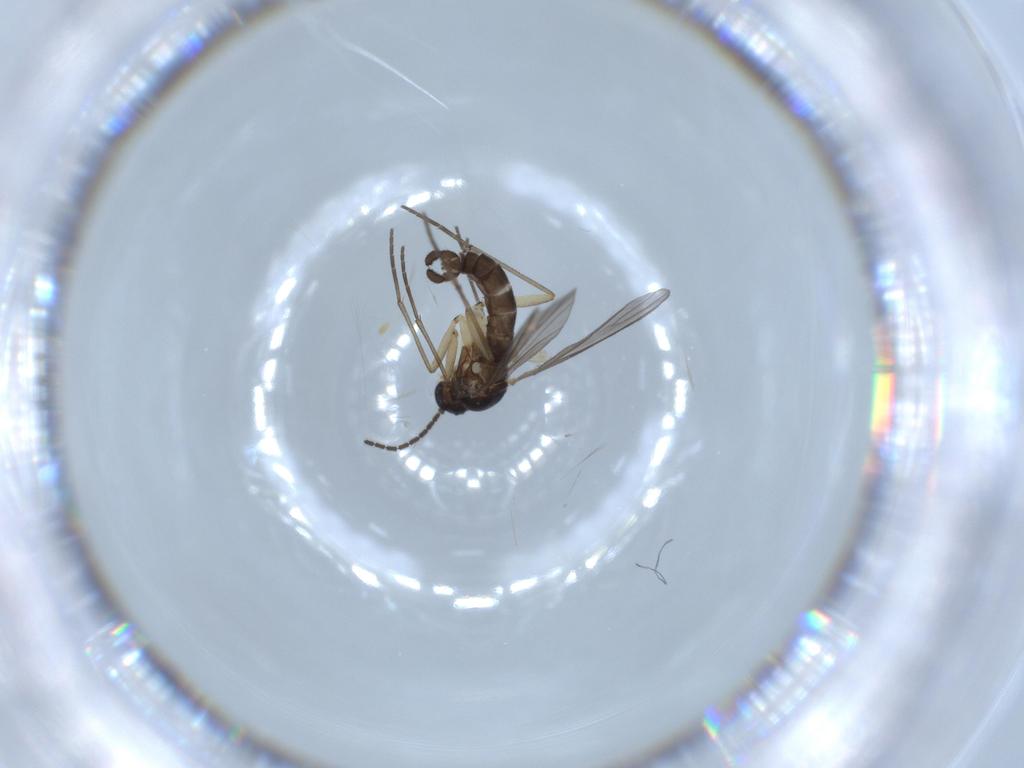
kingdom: Animalia
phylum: Arthropoda
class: Insecta
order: Diptera
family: Sciaridae
